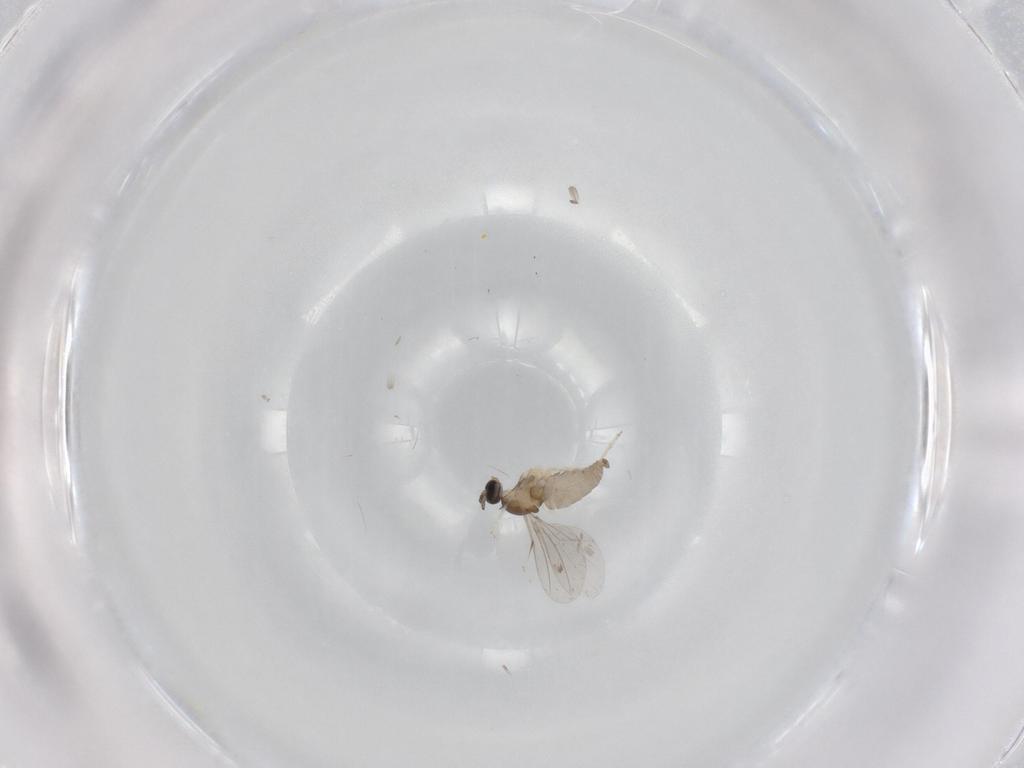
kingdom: Animalia
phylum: Arthropoda
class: Insecta
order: Diptera
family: Cecidomyiidae
